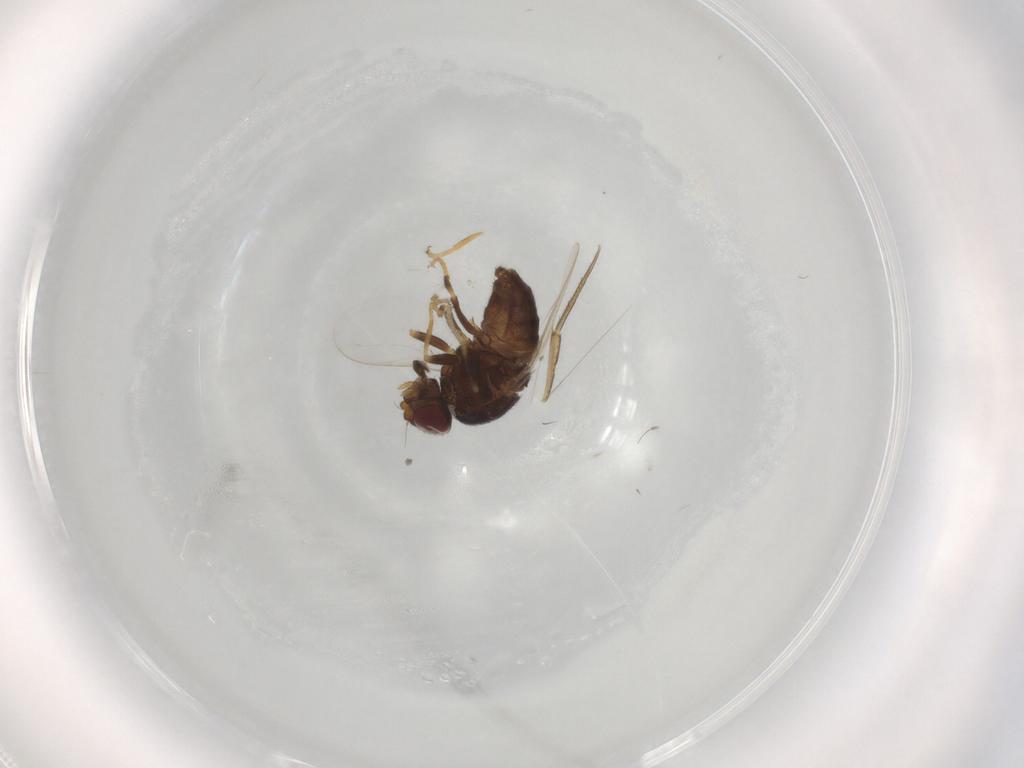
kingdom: Animalia
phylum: Arthropoda
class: Insecta
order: Diptera
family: Chloropidae
